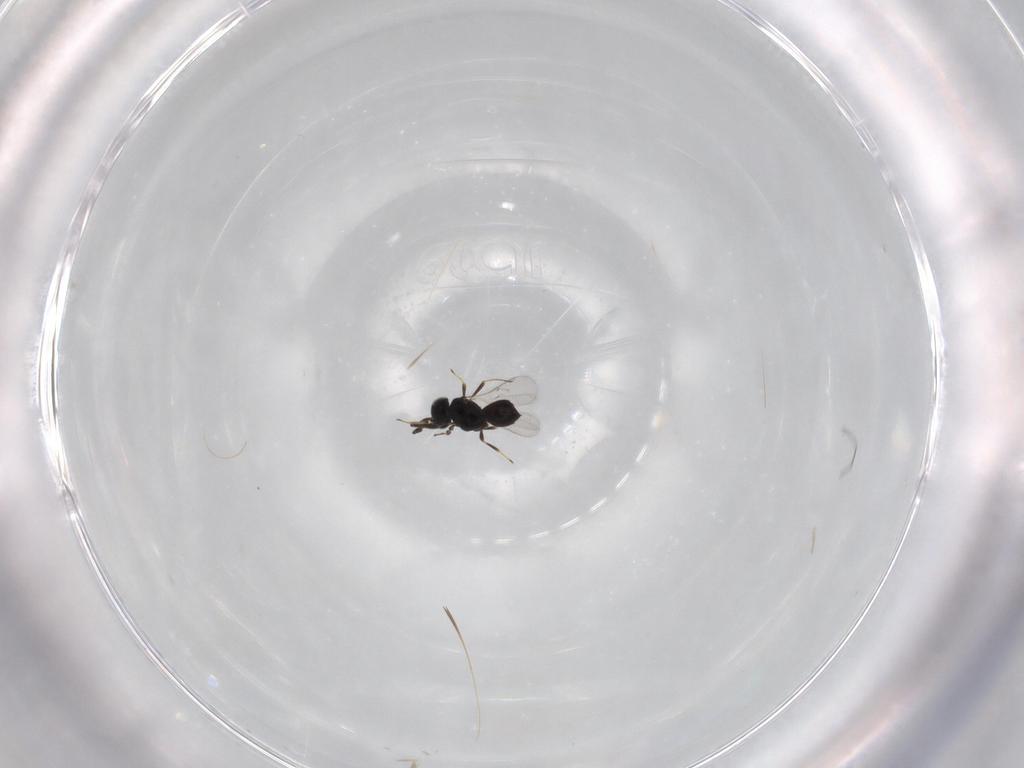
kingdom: Animalia
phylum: Arthropoda
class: Insecta
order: Hymenoptera
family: Scelionidae
